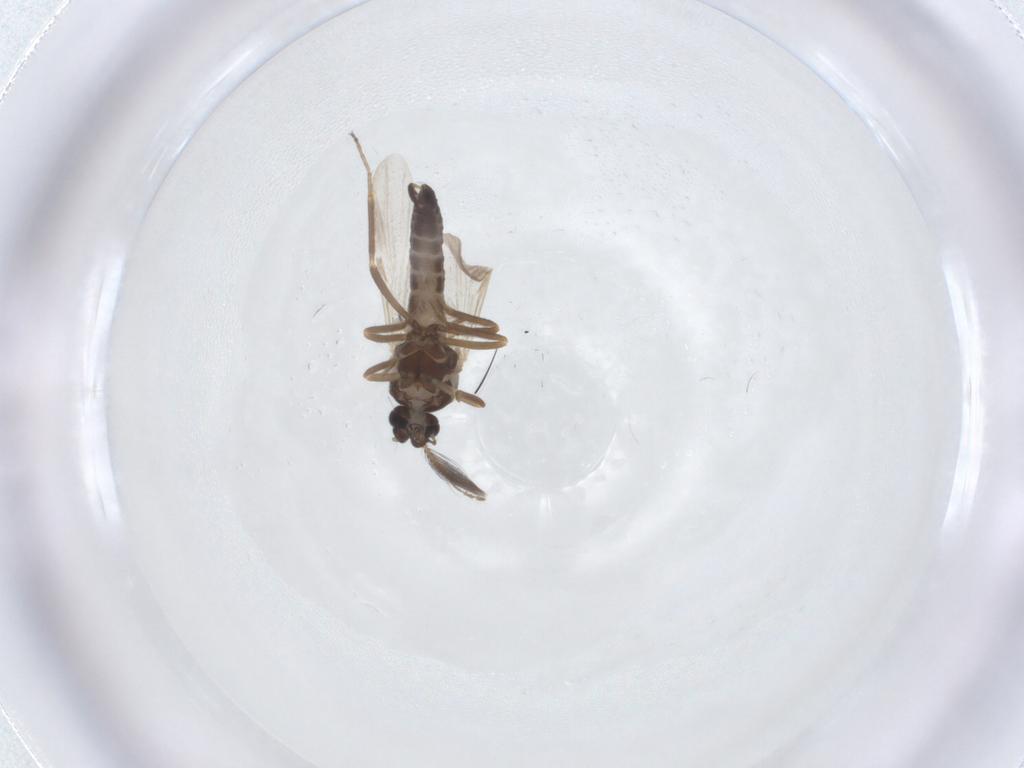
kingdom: Animalia
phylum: Arthropoda
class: Insecta
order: Diptera
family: Ceratopogonidae
